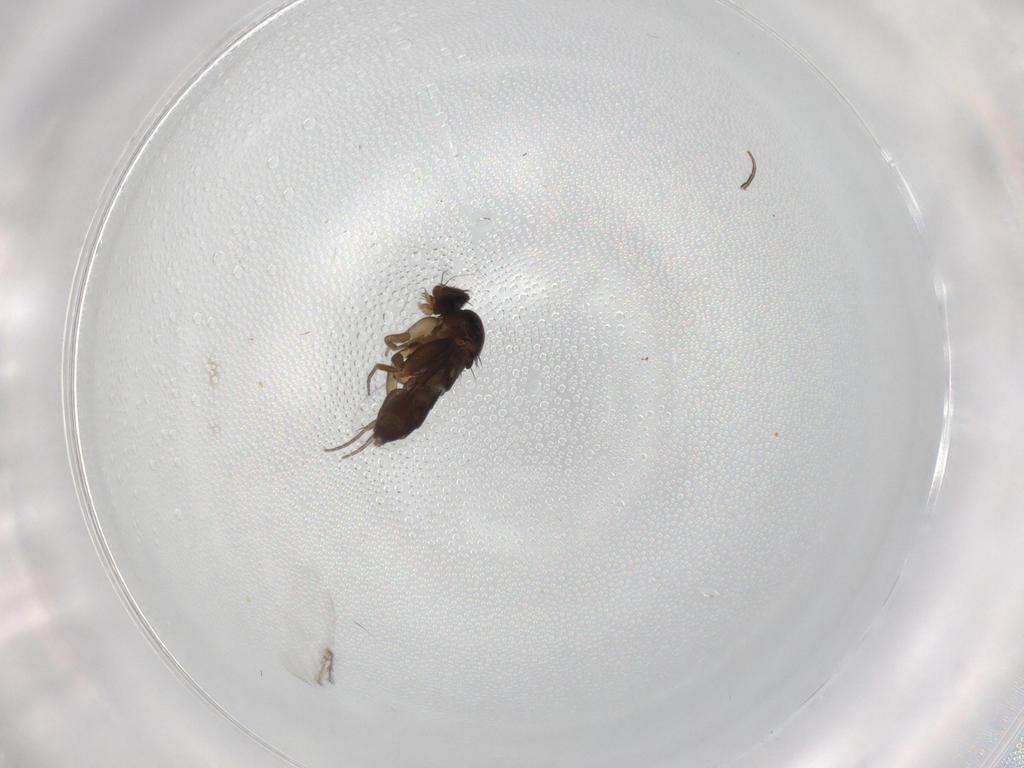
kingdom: Animalia
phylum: Arthropoda
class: Insecta
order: Diptera
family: Phoridae
